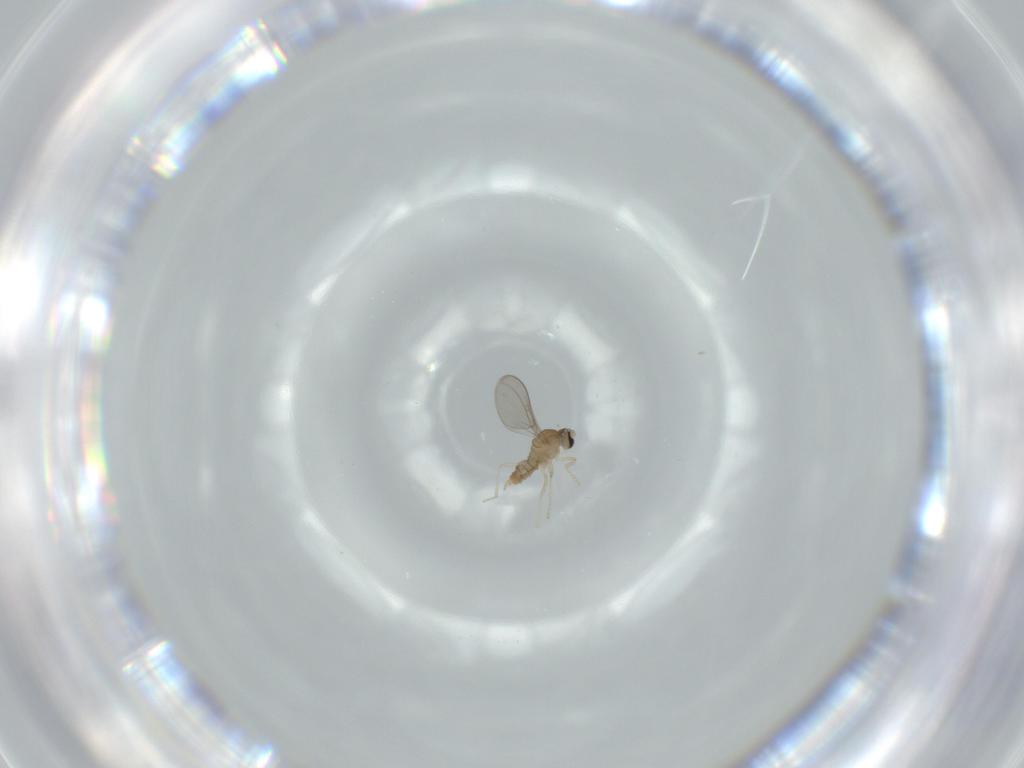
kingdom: Animalia
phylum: Arthropoda
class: Insecta
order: Diptera
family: Cecidomyiidae
